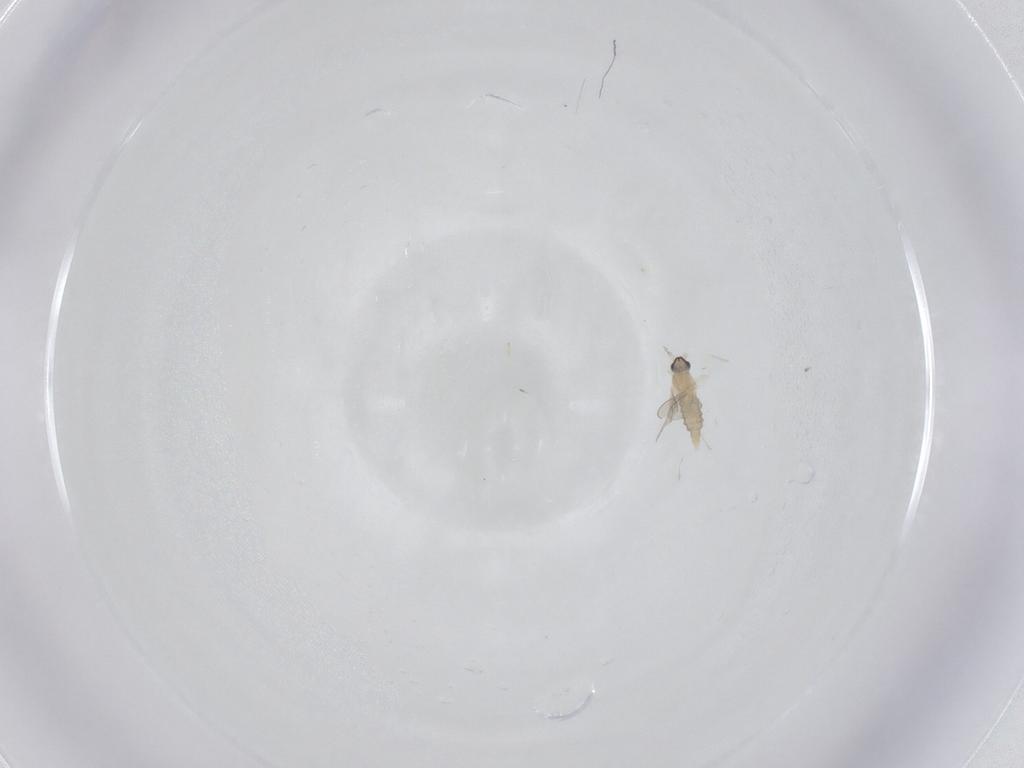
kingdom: Animalia
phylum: Arthropoda
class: Insecta
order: Diptera
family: Cecidomyiidae
